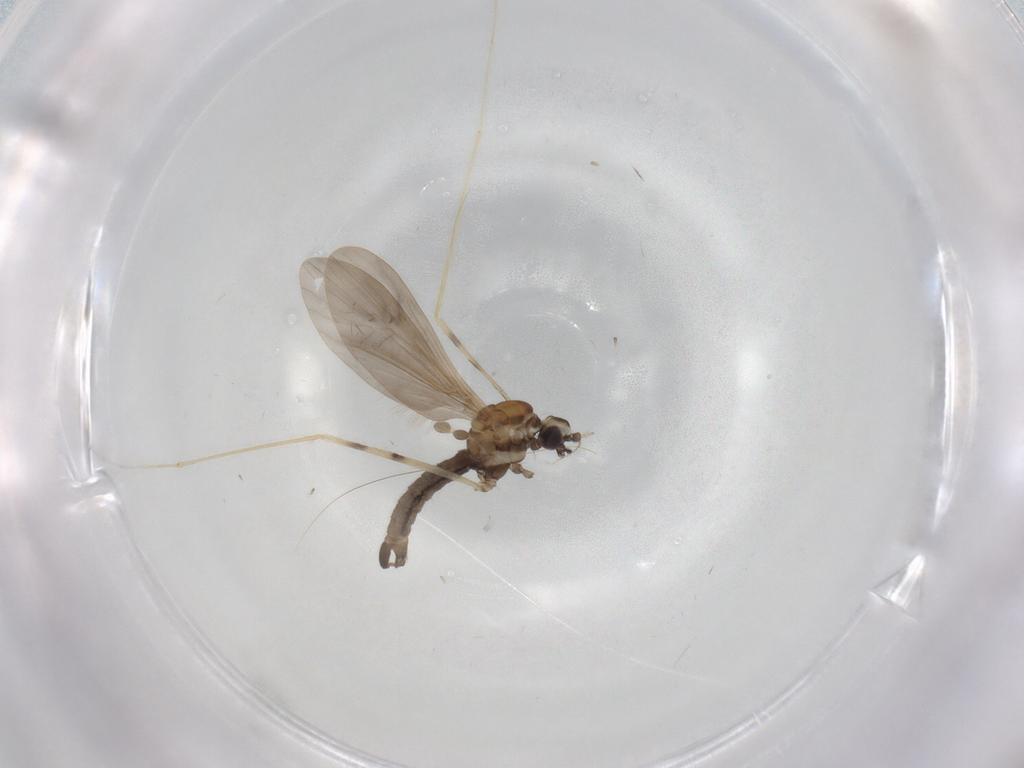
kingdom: Animalia
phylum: Arthropoda
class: Insecta
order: Diptera
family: Limoniidae
